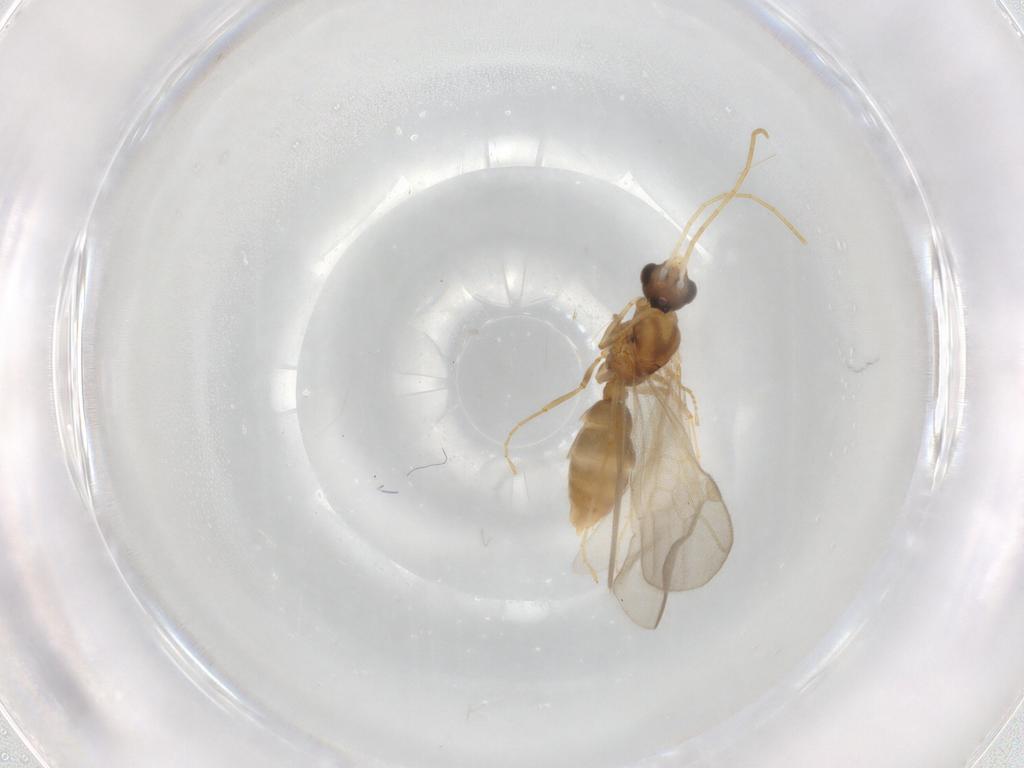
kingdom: Animalia
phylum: Arthropoda
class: Insecta
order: Hymenoptera
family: Formicidae
